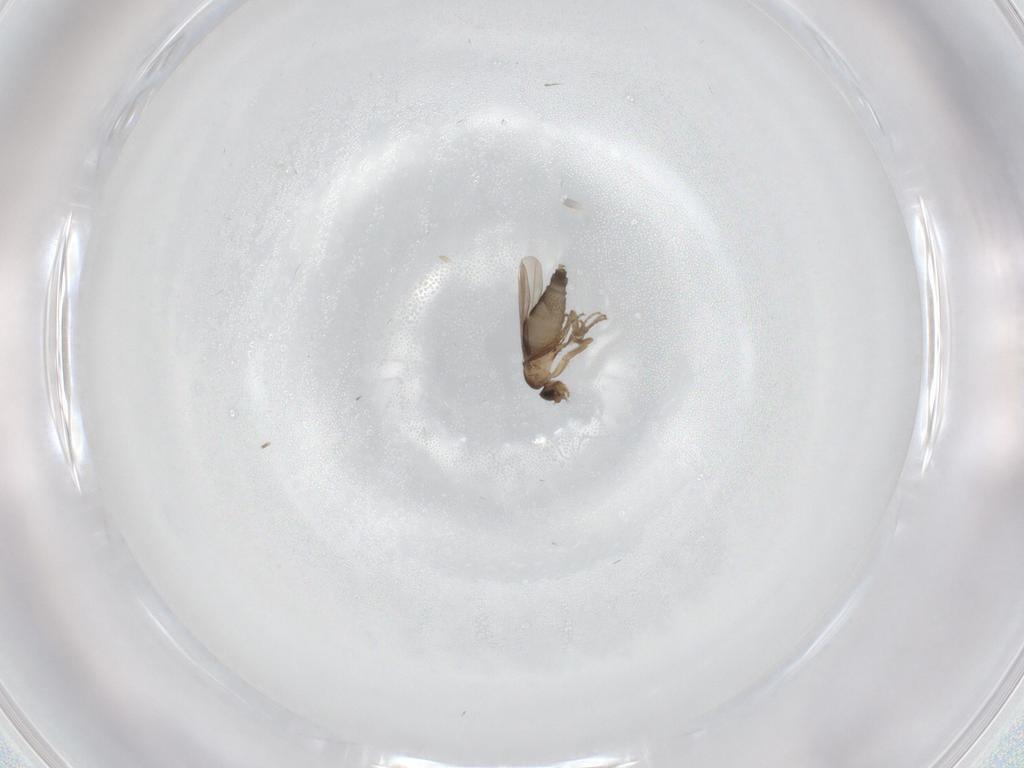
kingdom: Animalia
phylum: Arthropoda
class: Insecta
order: Diptera
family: Phoridae
